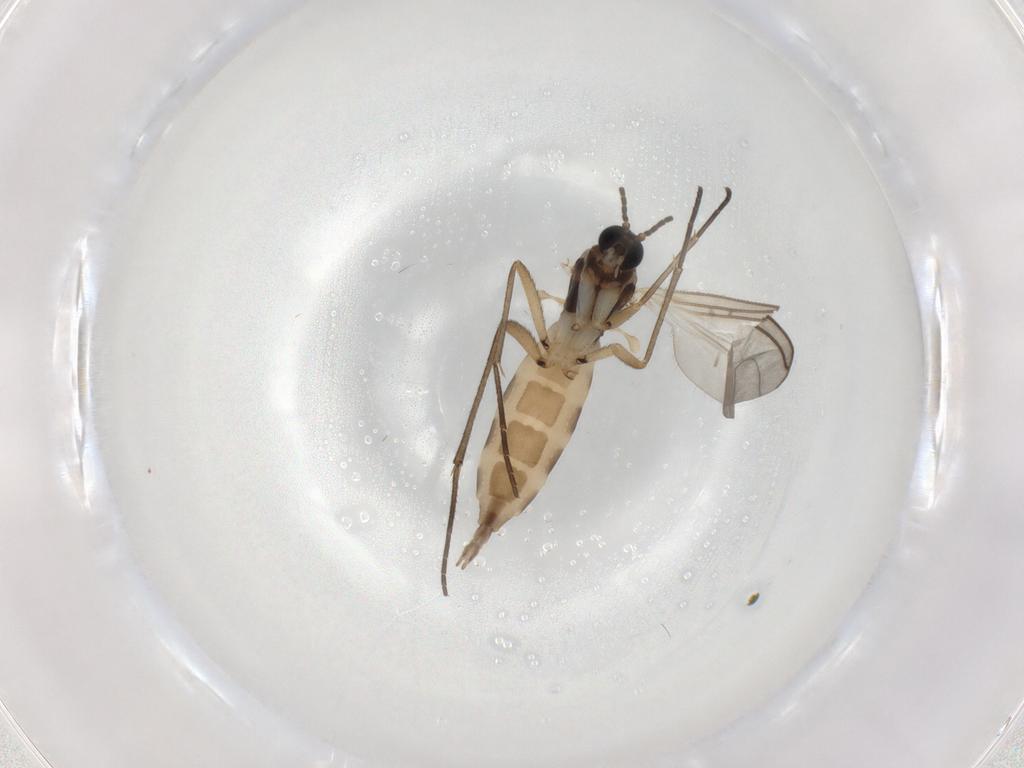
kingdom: Animalia
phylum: Arthropoda
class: Insecta
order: Diptera
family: Sciaridae
